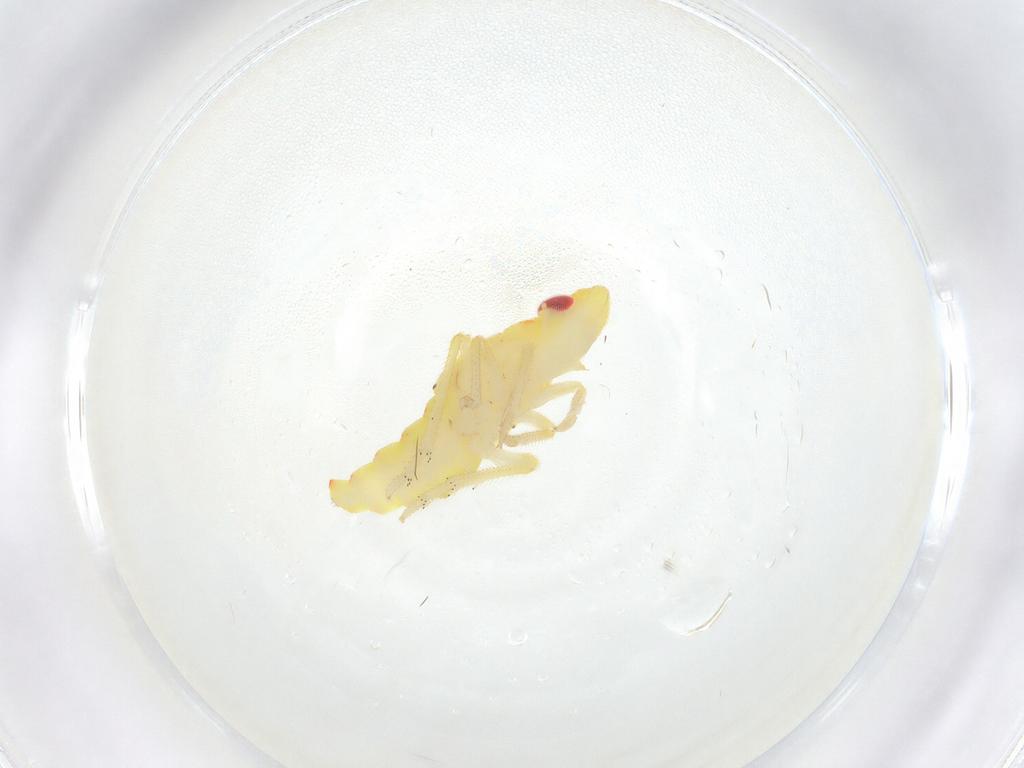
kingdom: Animalia
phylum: Arthropoda
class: Insecta
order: Hemiptera
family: Tropiduchidae
